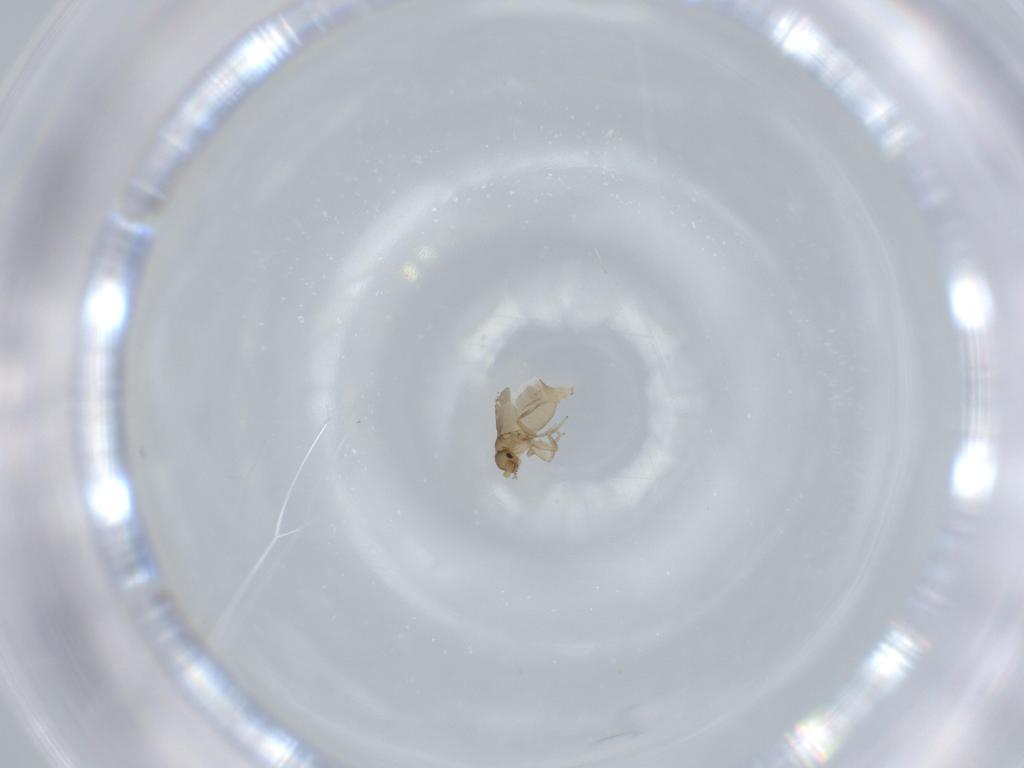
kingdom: Animalia
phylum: Arthropoda
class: Insecta
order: Diptera
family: Phoridae
